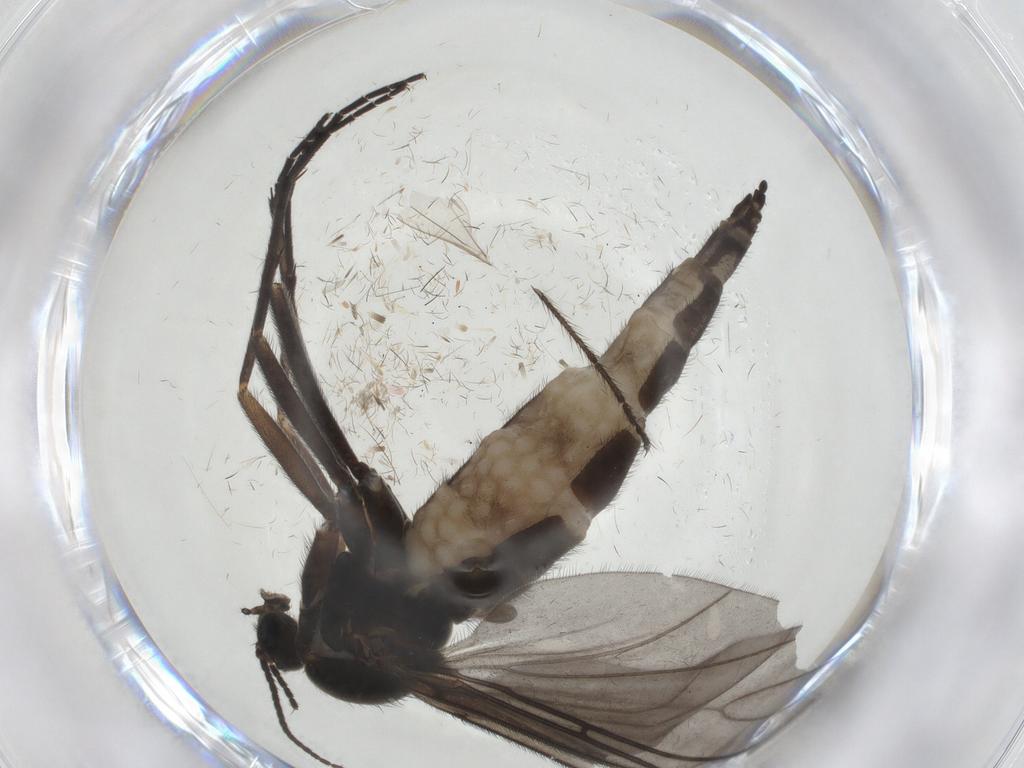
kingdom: Animalia
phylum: Arthropoda
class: Insecta
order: Diptera
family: Sciaridae
